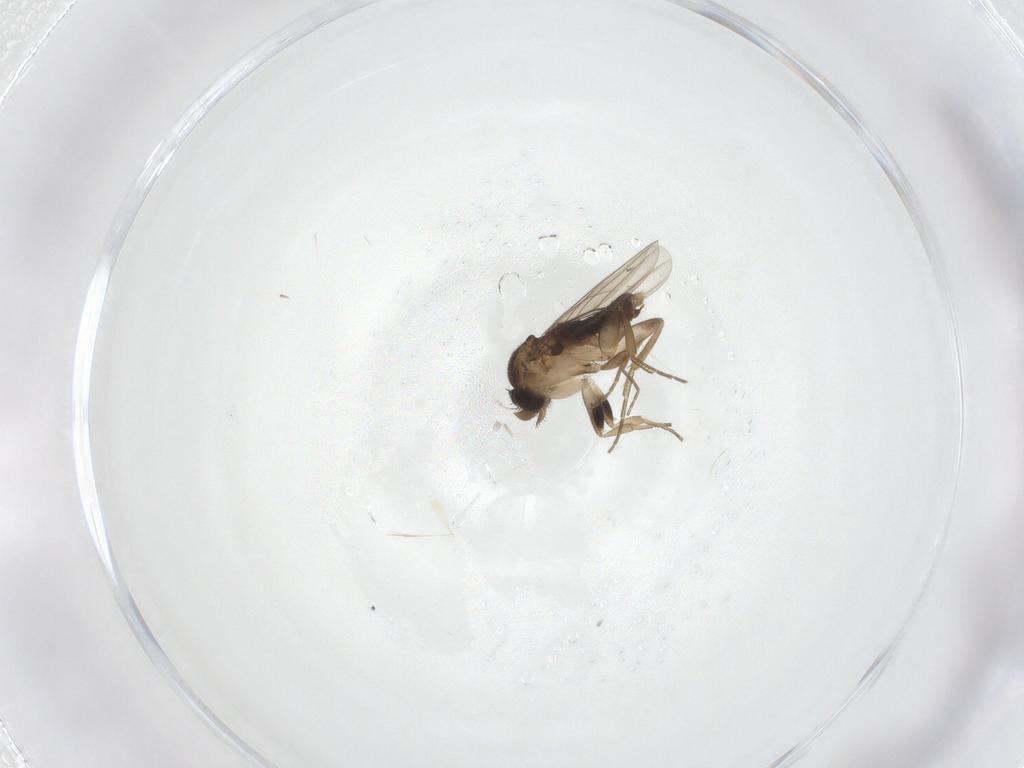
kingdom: Animalia
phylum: Arthropoda
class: Insecta
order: Diptera
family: Phoridae
